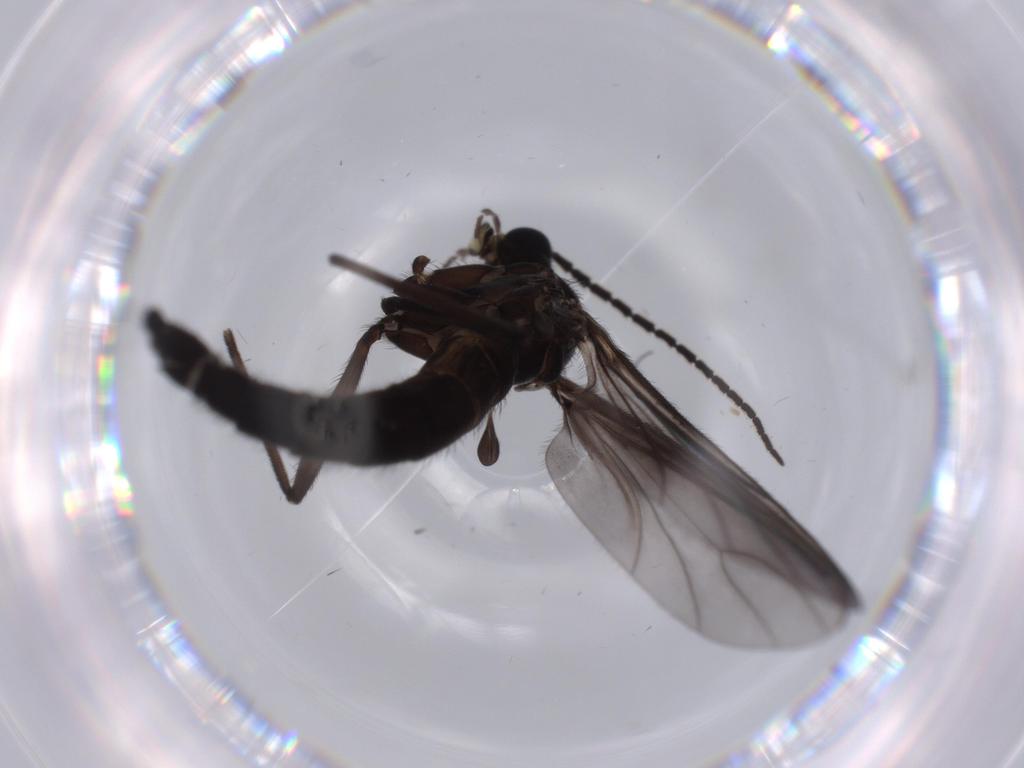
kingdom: Animalia
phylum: Arthropoda
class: Insecta
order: Diptera
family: Ceratopogonidae
